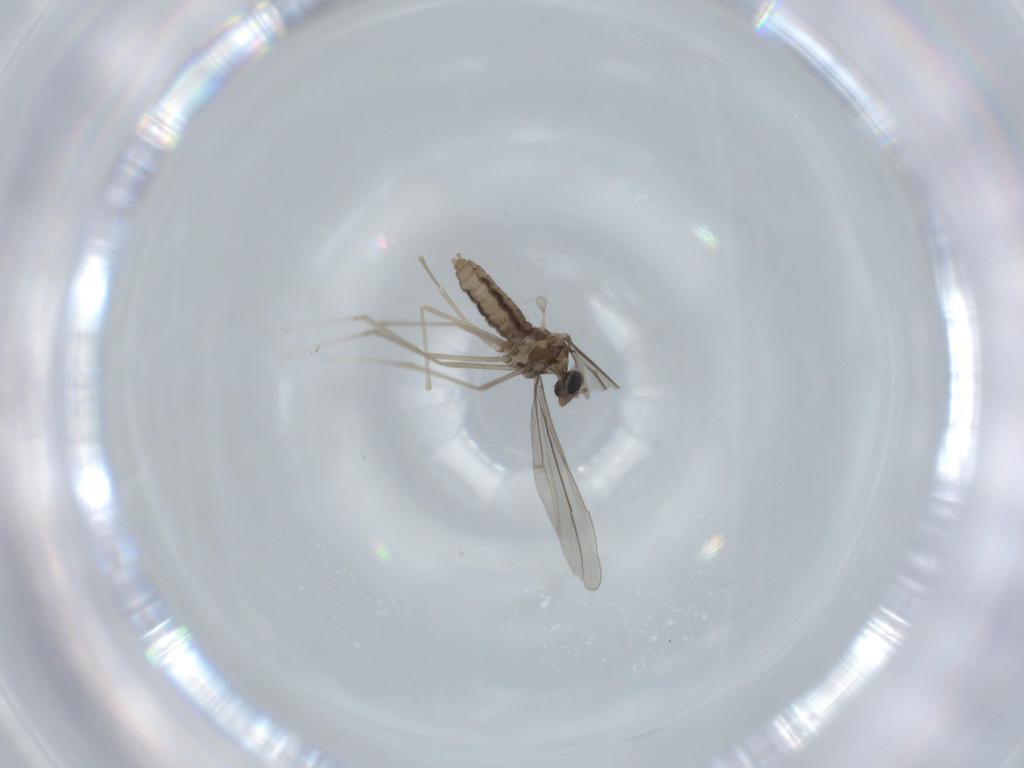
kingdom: Animalia
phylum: Arthropoda
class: Insecta
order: Diptera
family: Cecidomyiidae
